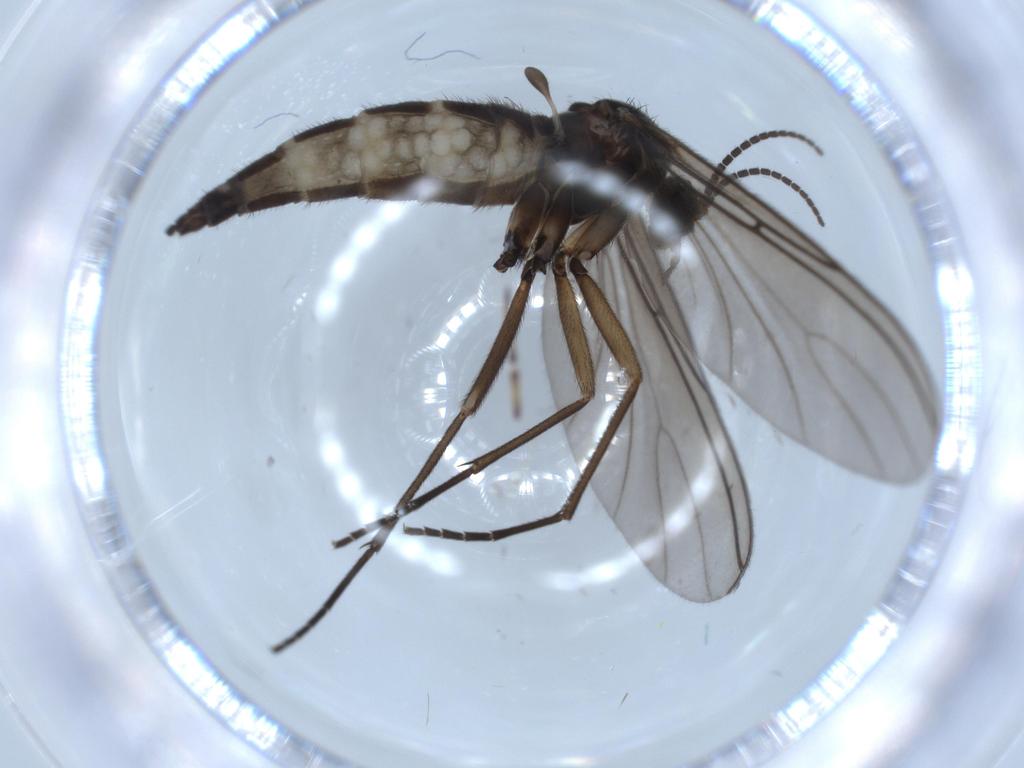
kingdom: Animalia
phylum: Arthropoda
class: Insecta
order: Diptera
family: Sciaridae
